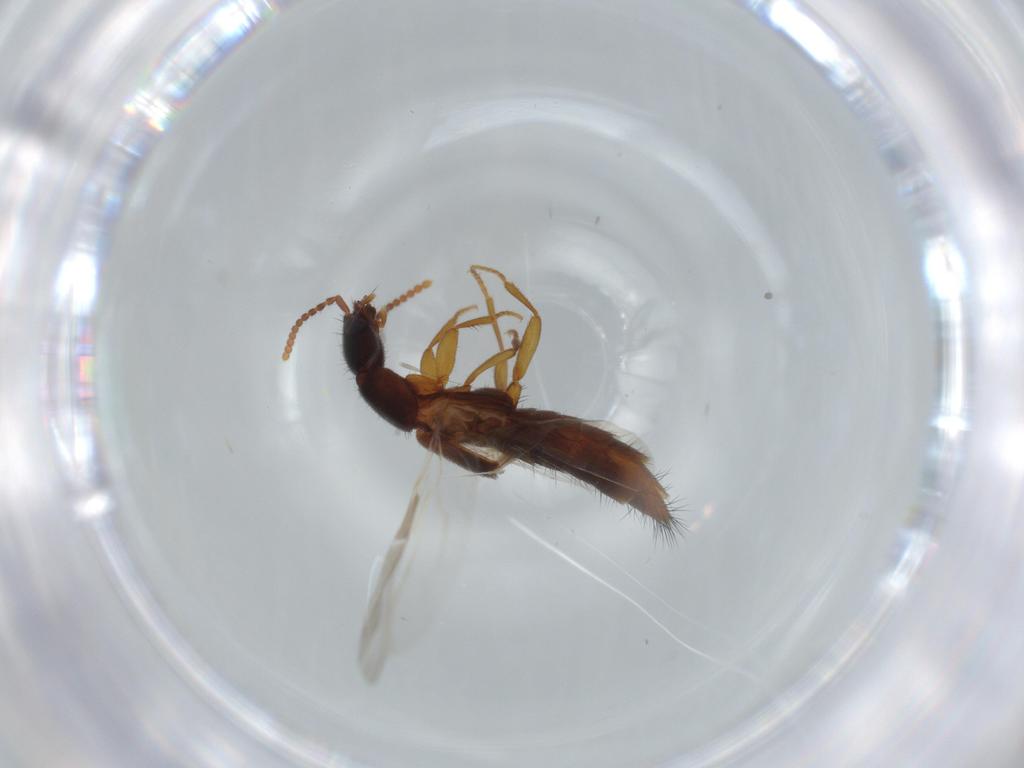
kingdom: Animalia
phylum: Arthropoda
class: Insecta
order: Coleoptera
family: Staphylinidae
